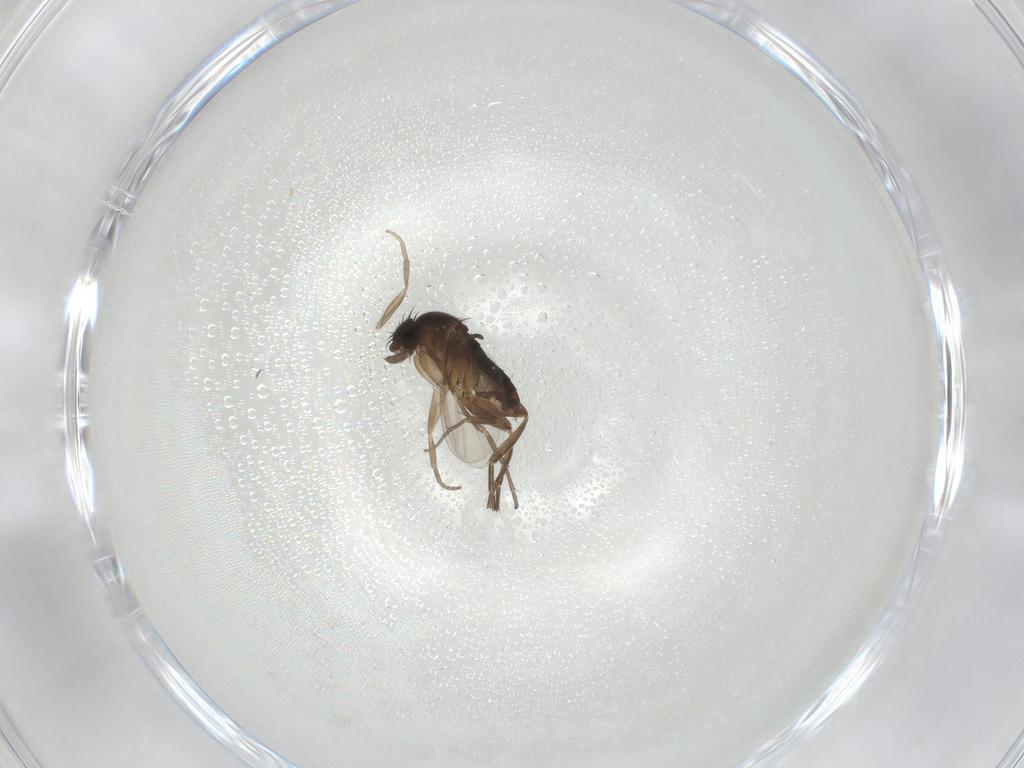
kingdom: Animalia
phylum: Arthropoda
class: Insecta
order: Diptera
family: Phoridae
